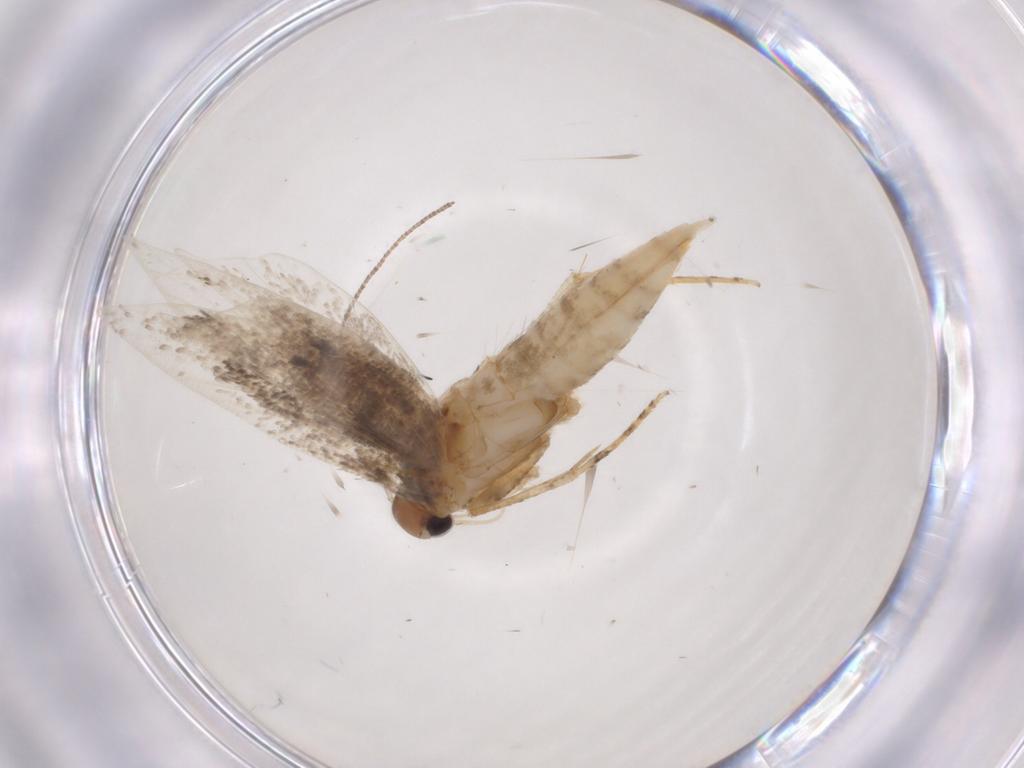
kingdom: Animalia
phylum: Arthropoda
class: Insecta
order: Lepidoptera
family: Gelechiidae
